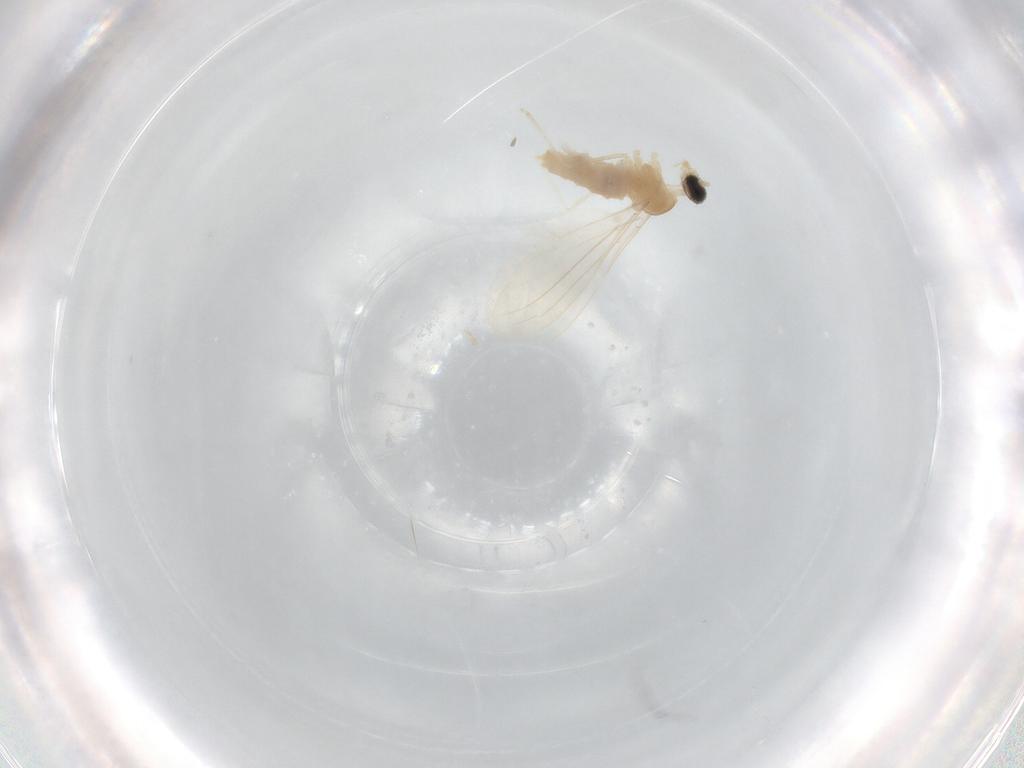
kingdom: Animalia
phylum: Arthropoda
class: Insecta
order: Diptera
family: Cecidomyiidae
